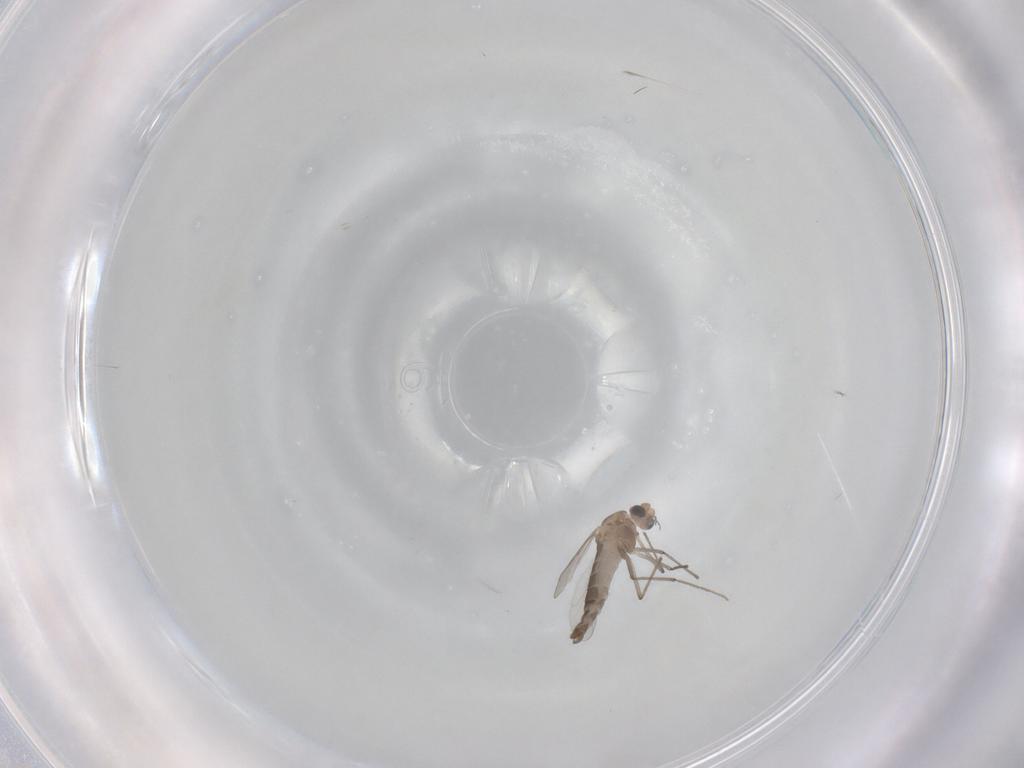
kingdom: Animalia
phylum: Arthropoda
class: Insecta
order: Diptera
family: Chironomidae
